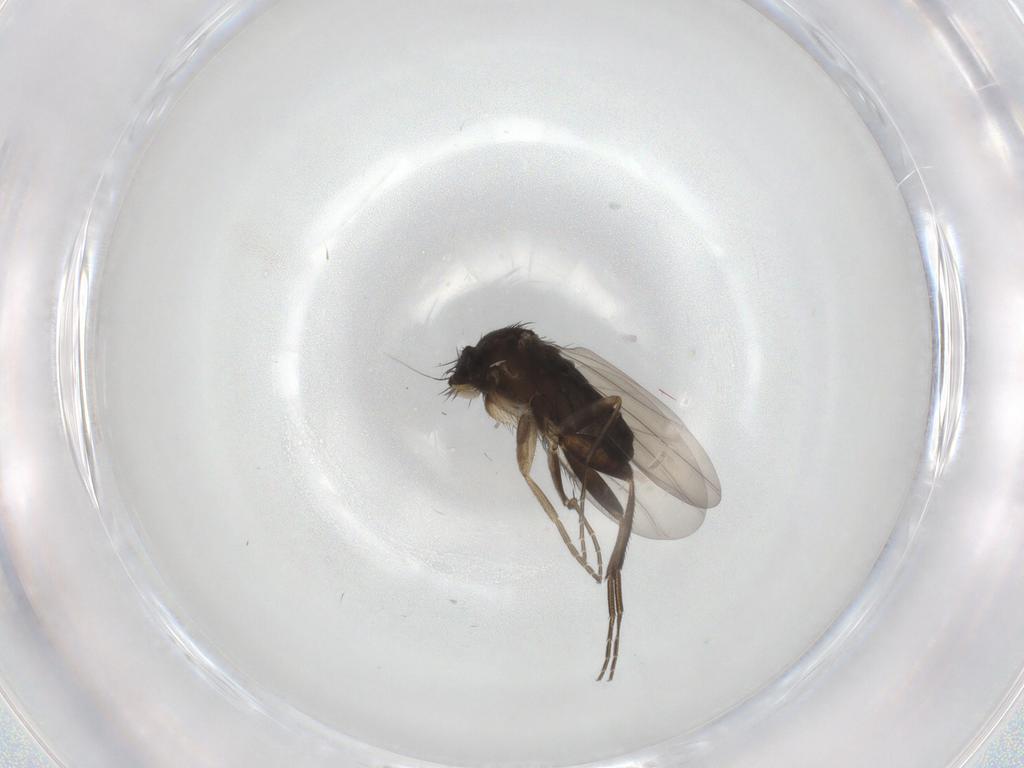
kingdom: Animalia
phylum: Arthropoda
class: Insecta
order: Diptera
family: Phoridae
